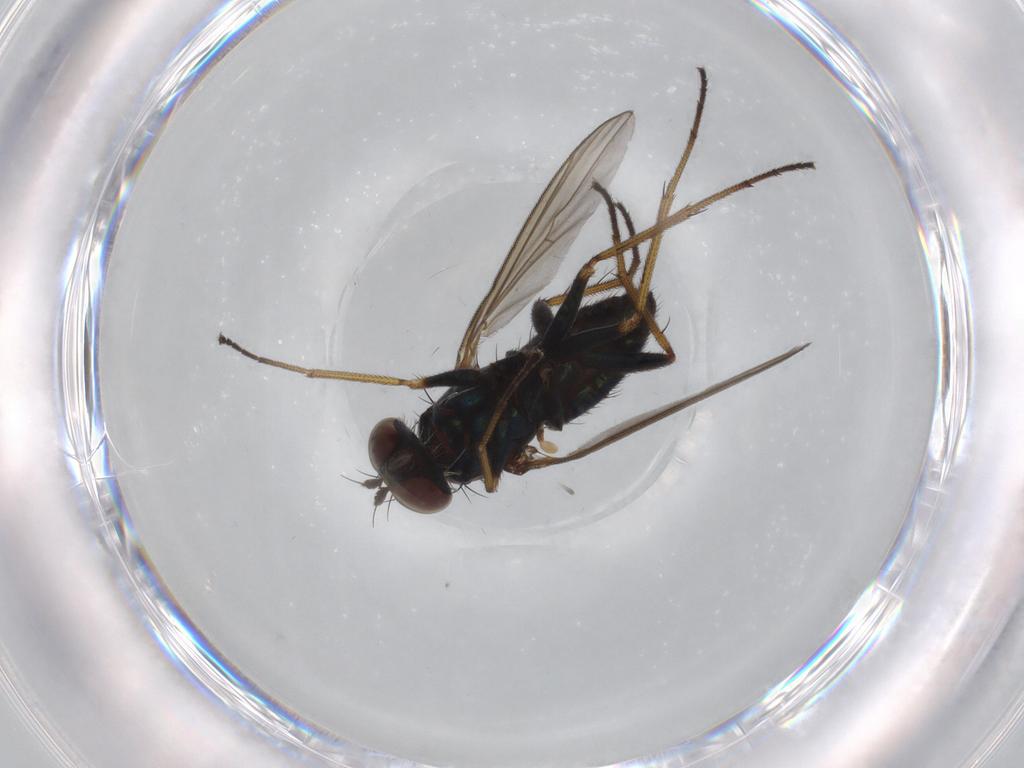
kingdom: Animalia
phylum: Arthropoda
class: Insecta
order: Diptera
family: Dolichopodidae
